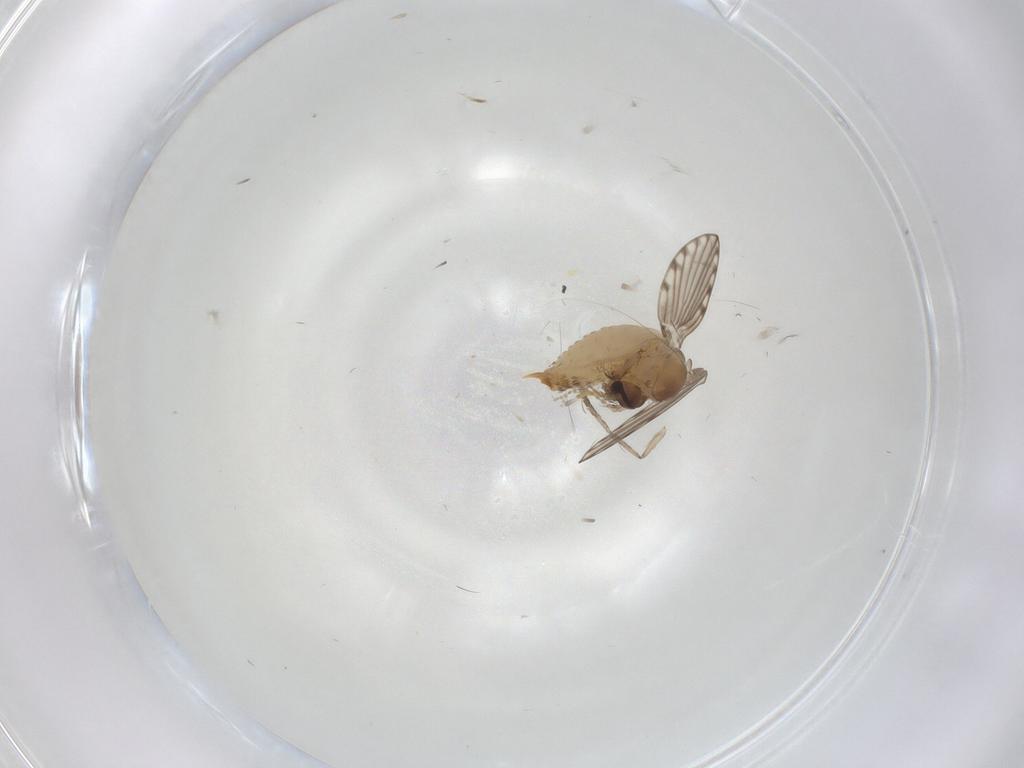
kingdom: Animalia
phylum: Arthropoda
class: Insecta
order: Diptera
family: Psychodidae
